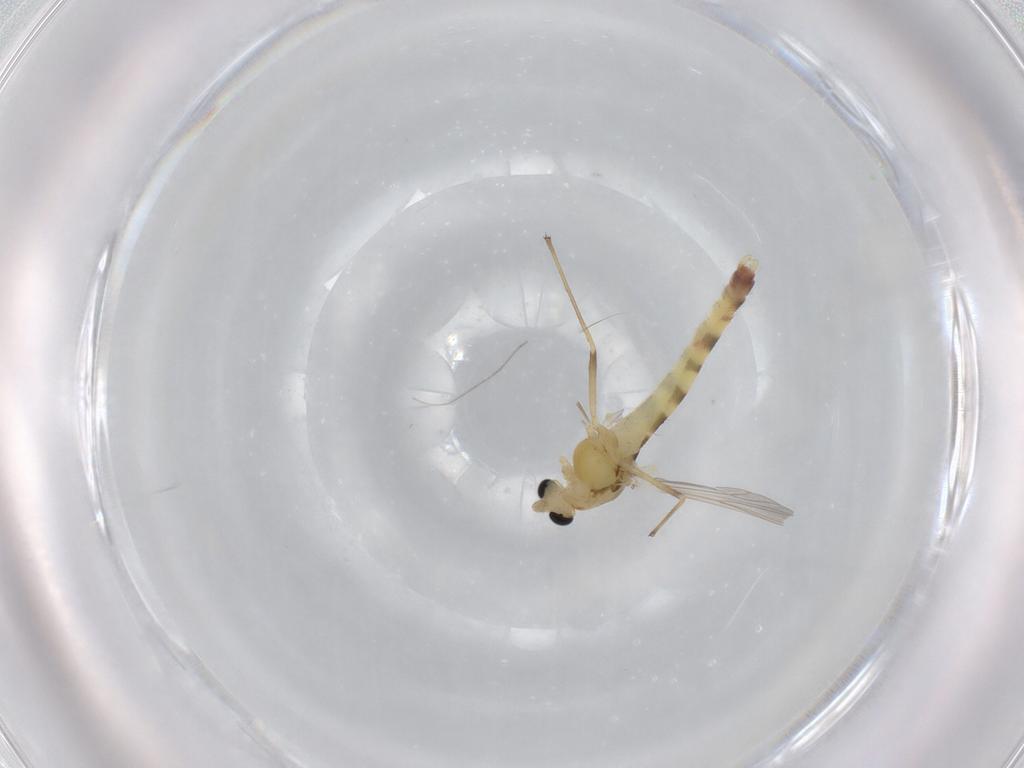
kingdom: Animalia
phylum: Arthropoda
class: Insecta
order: Diptera
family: Chironomidae
